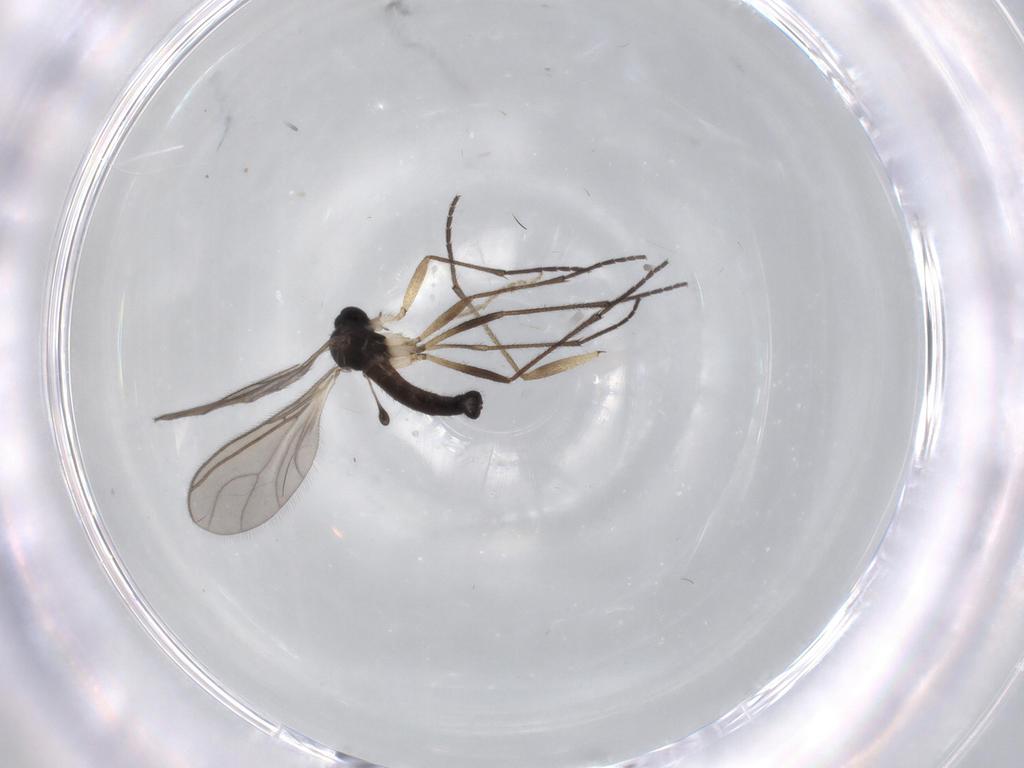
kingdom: Animalia
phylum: Arthropoda
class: Insecta
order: Diptera
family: Sciaridae
